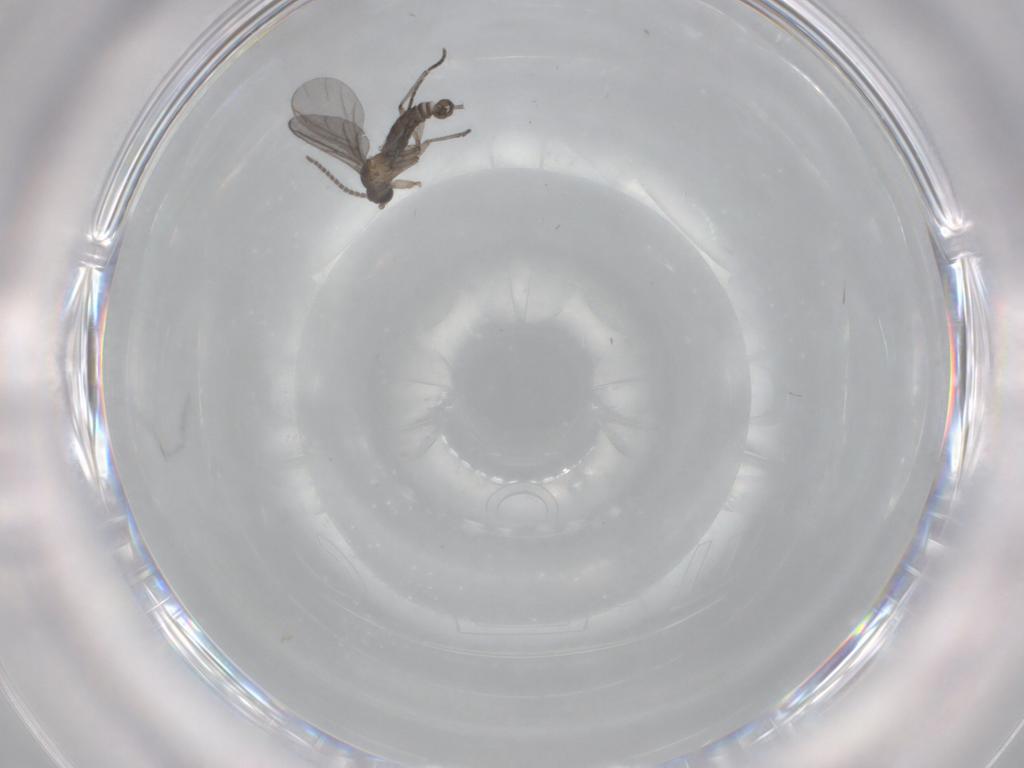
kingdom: Animalia
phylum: Arthropoda
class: Insecta
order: Diptera
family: Sciaridae
